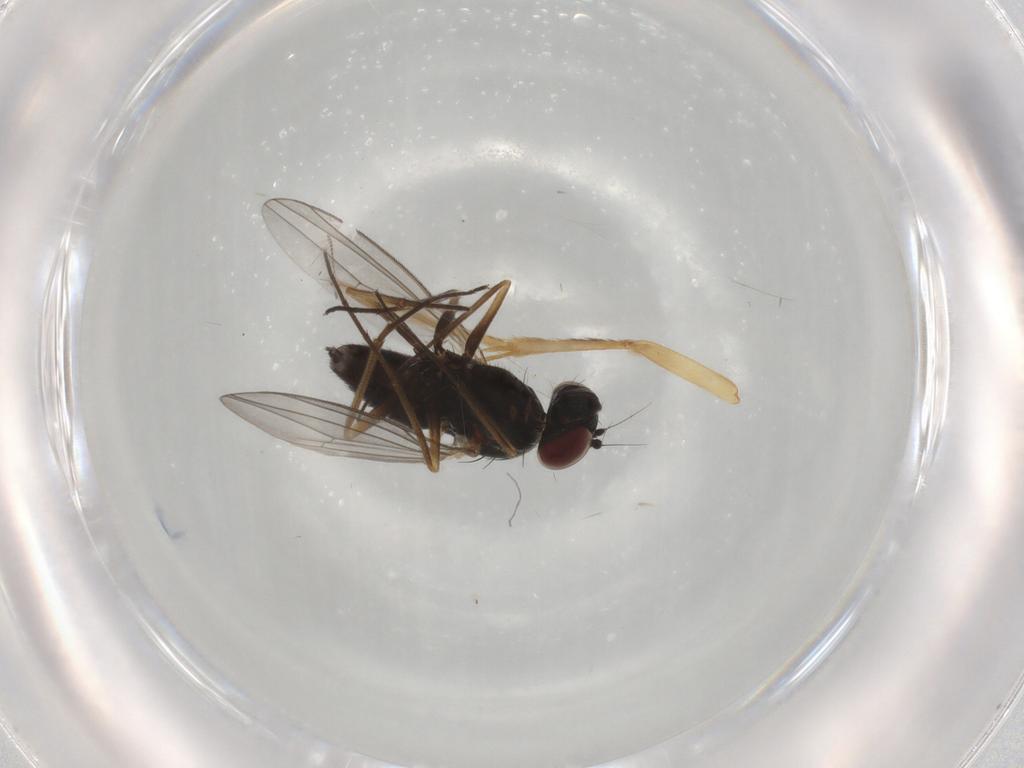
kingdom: Animalia
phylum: Arthropoda
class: Insecta
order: Diptera
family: Dolichopodidae
